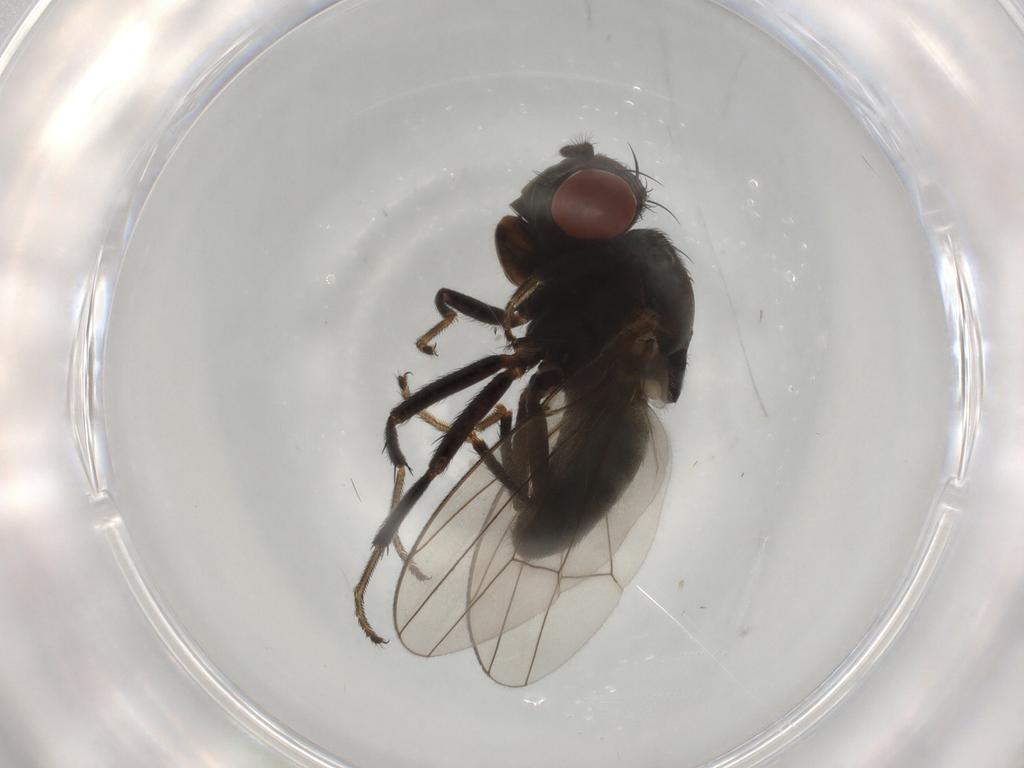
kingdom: Animalia
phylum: Arthropoda
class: Insecta
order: Diptera
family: Ephydridae
